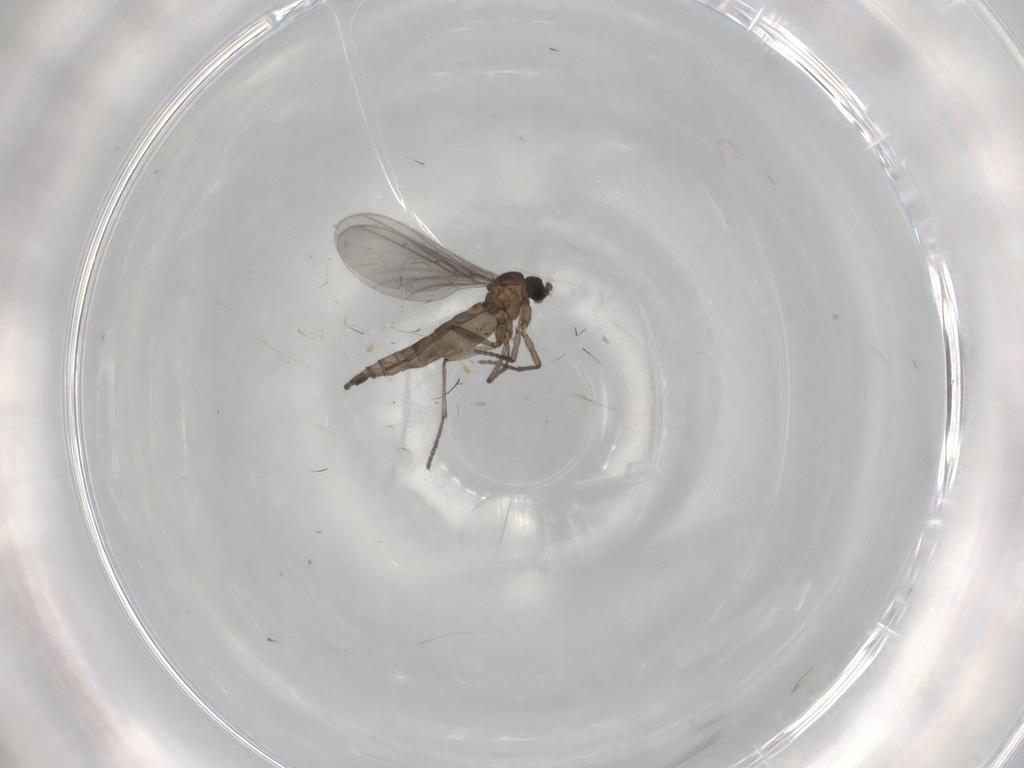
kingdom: Animalia
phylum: Arthropoda
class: Insecta
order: Diptera
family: Sciaridae
